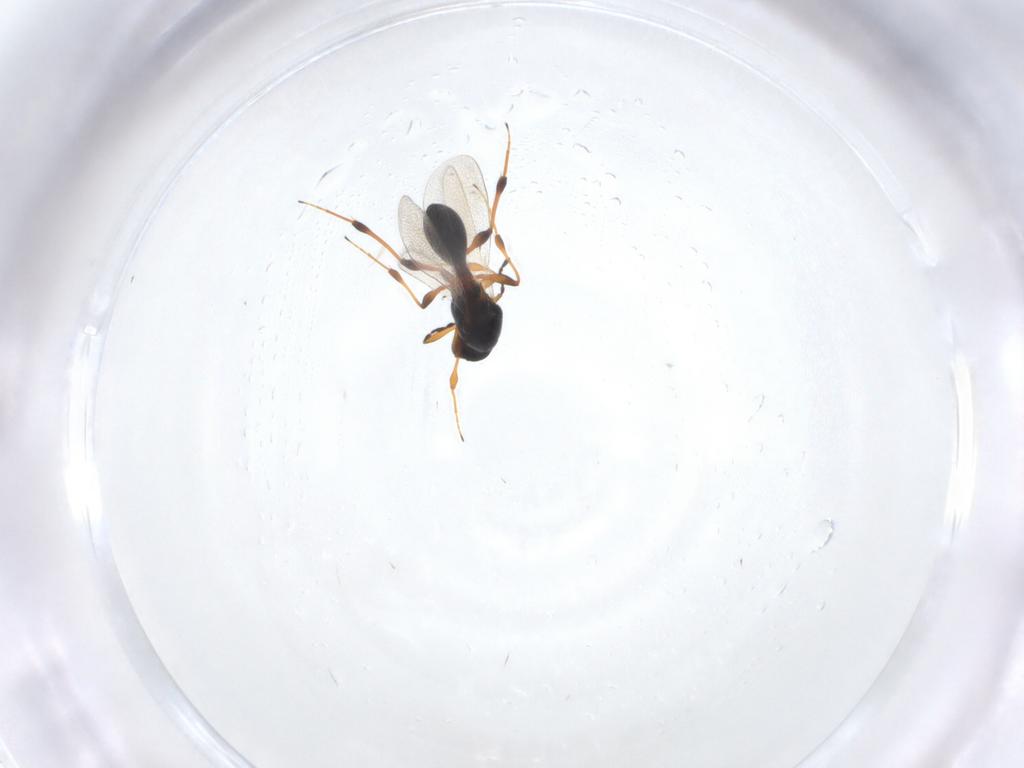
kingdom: Animalia
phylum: Arthropoda
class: Insecta
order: Hymenoptera
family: Platygastridae
